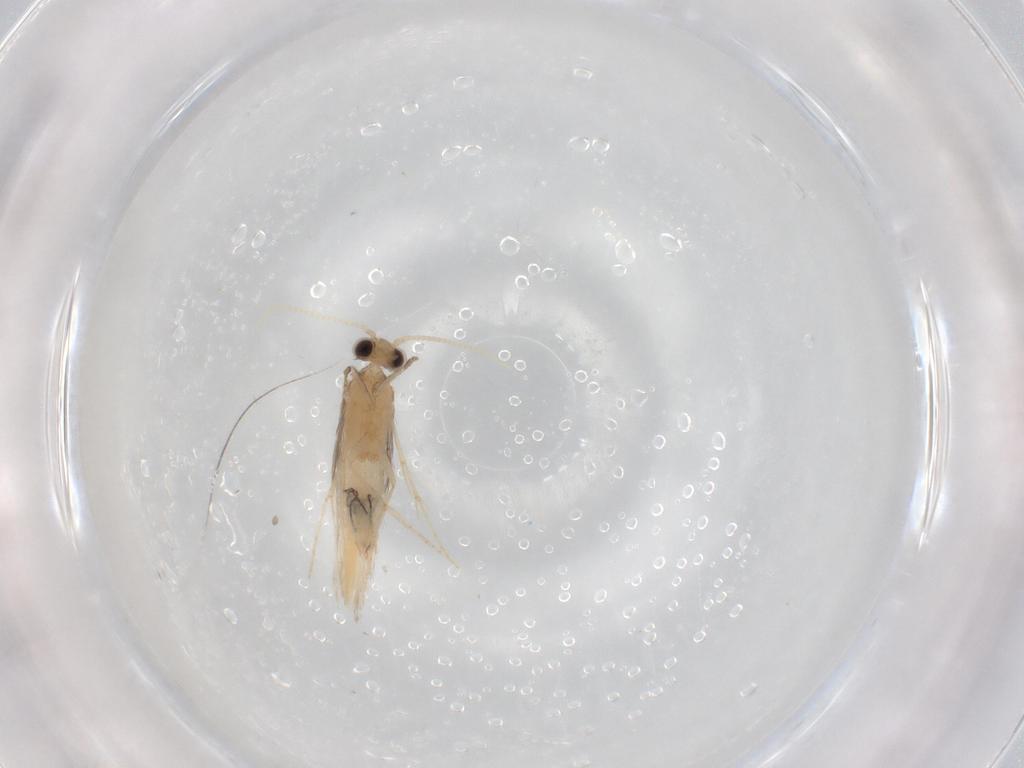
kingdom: Animalia
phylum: Arthropoda
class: Insecta
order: Trichoptera
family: Hydroptilidae
